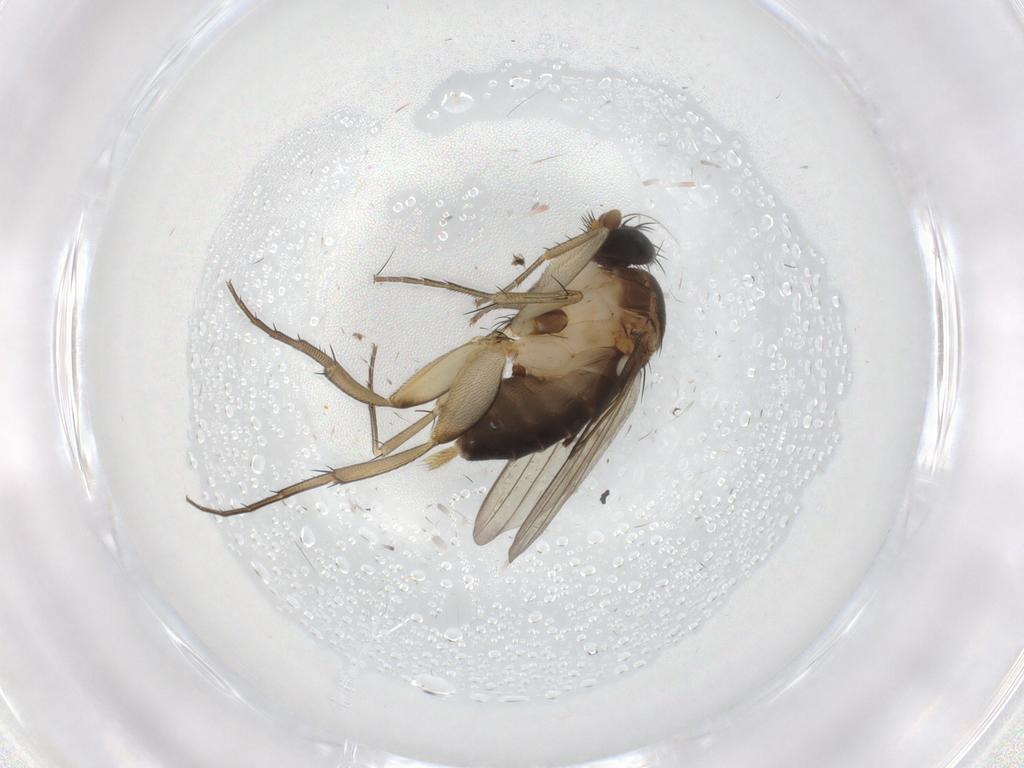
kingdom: Animalia
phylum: Arthropoda
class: Insecta
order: Diptera
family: Phoridae
